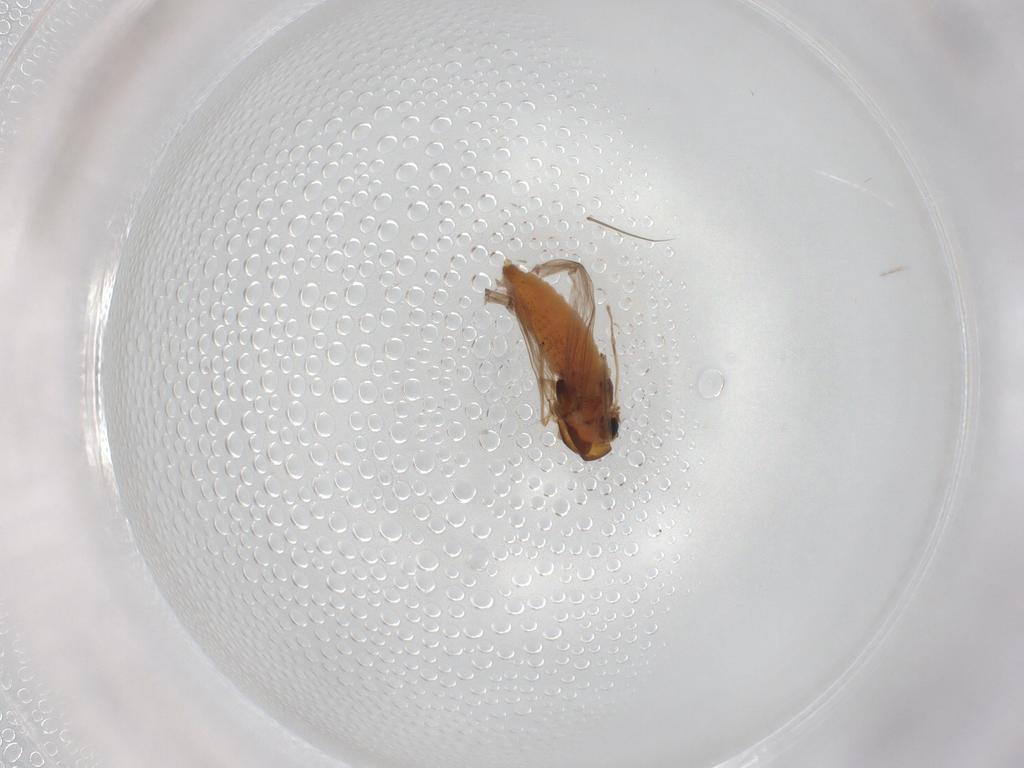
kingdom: Animalia
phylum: Arthropoda
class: Insecta
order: Diptera
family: Chironomidae
